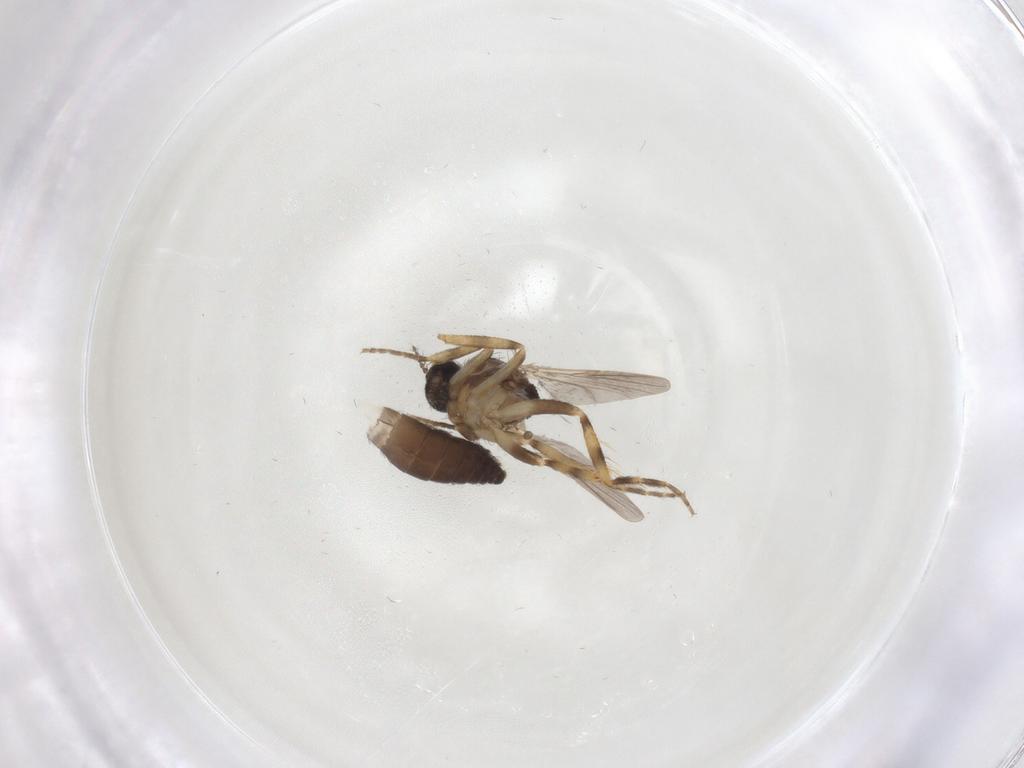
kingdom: Animalia
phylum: Arthropoda
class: Insecta
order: Diptera
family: Ceratopogonidae
